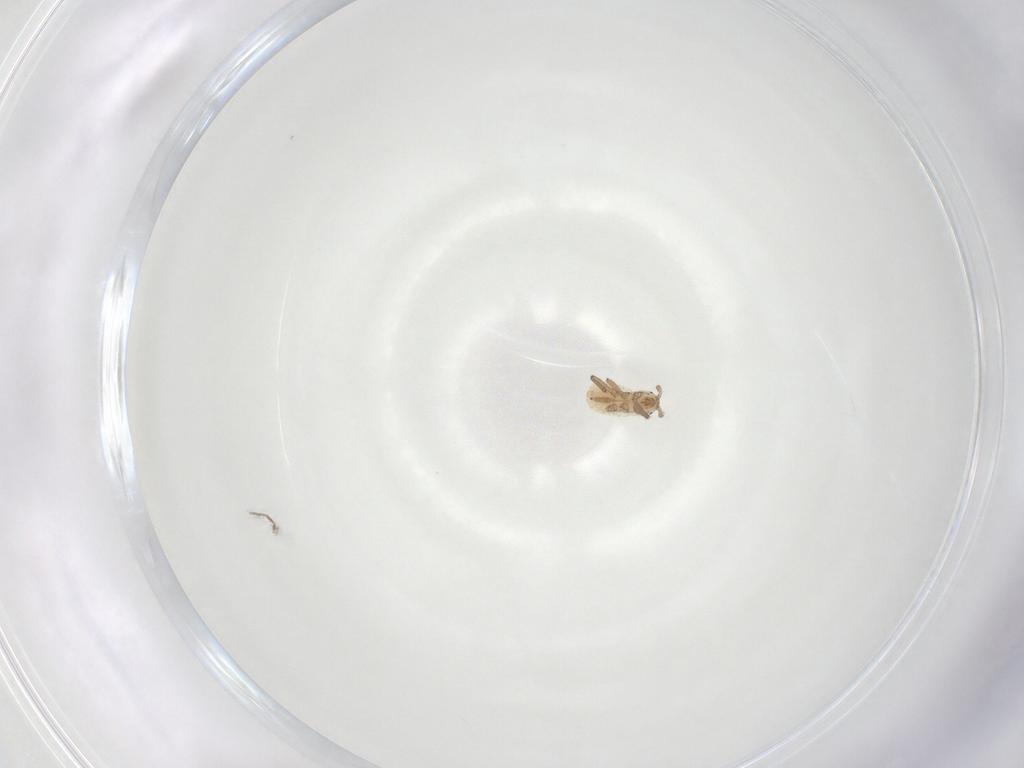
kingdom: Animalia
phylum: Arthropoda
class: Insecta
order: Hemiptera
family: Aphididae
